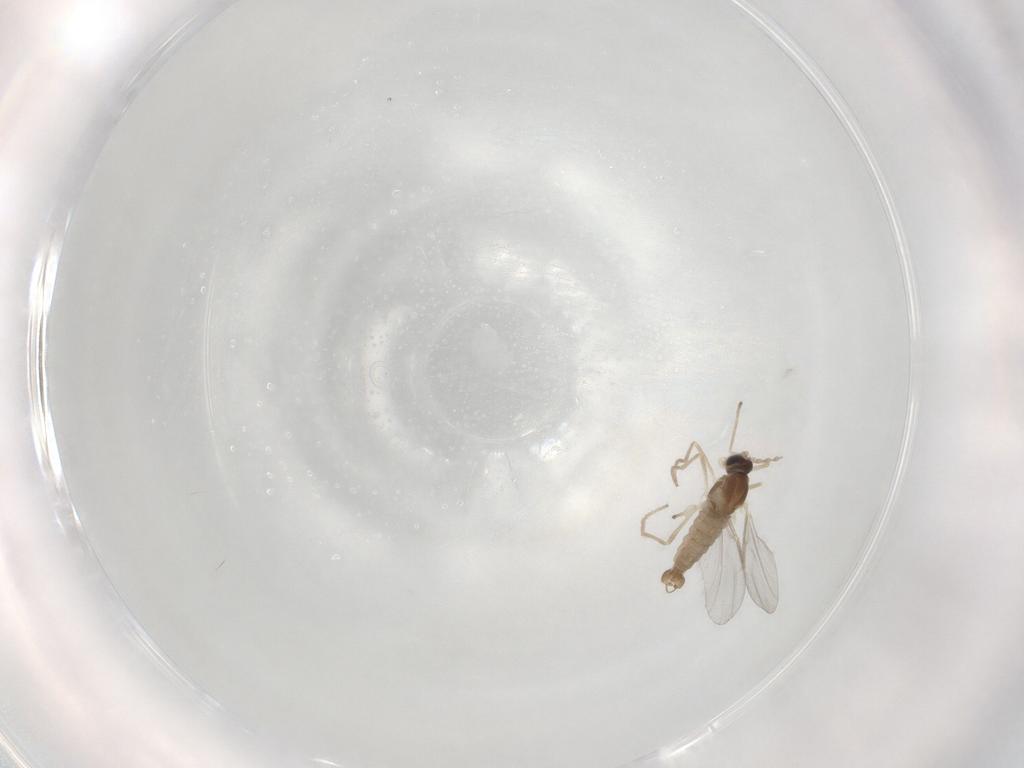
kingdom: Animalia
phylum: Arthropoda
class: Insecta
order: Diptera
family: Cecidomyiidae
